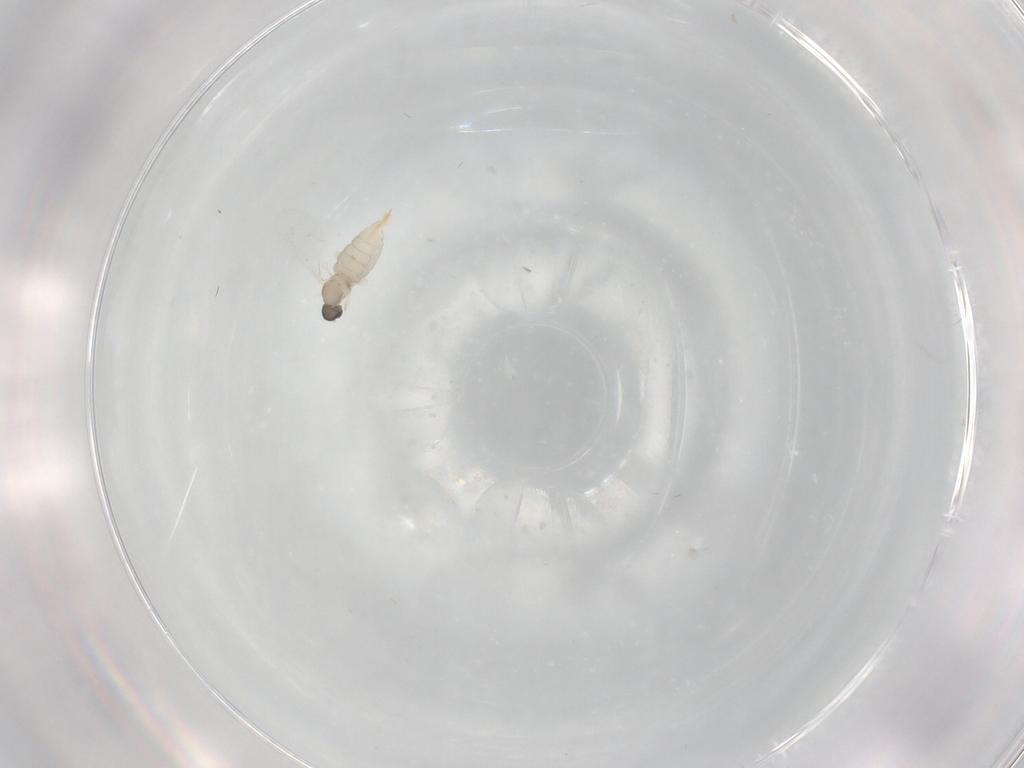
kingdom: Animalia
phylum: Arthropoda
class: Insecta
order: Diptera
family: Cecidomyiidae
